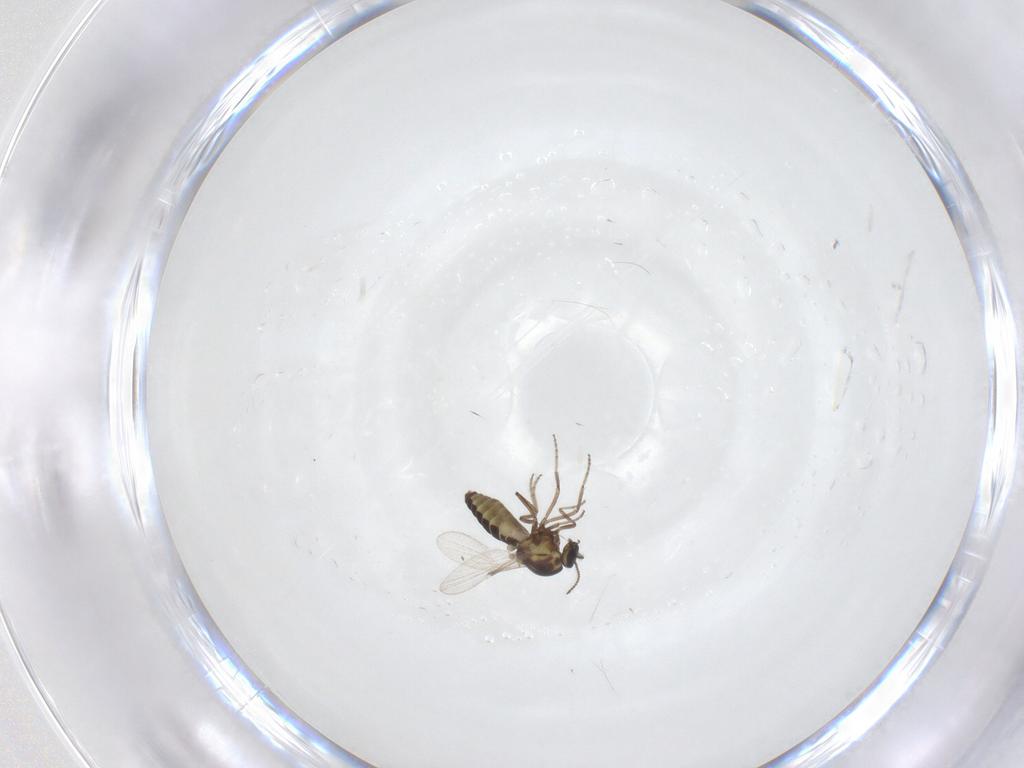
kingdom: Animalia
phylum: Arthropoda
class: Insecta
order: Diptera
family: Ceratopogonidae
